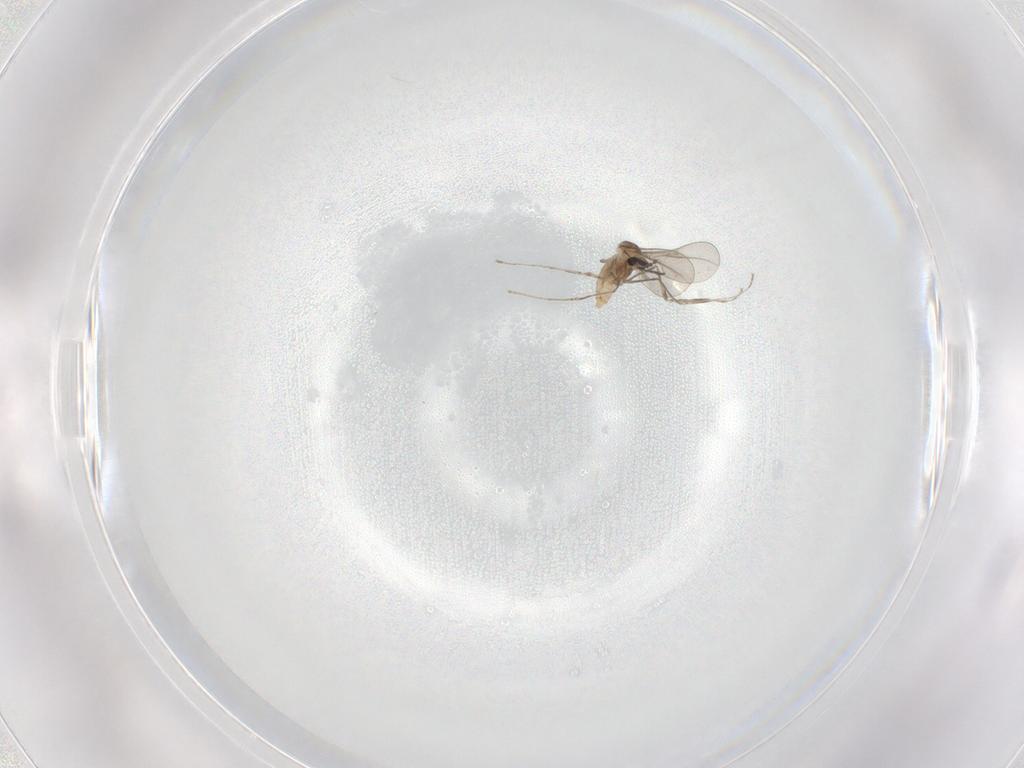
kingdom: Animalia
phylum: Arthropoda
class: Insecta
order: Diptera
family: Cecidomyiidae
